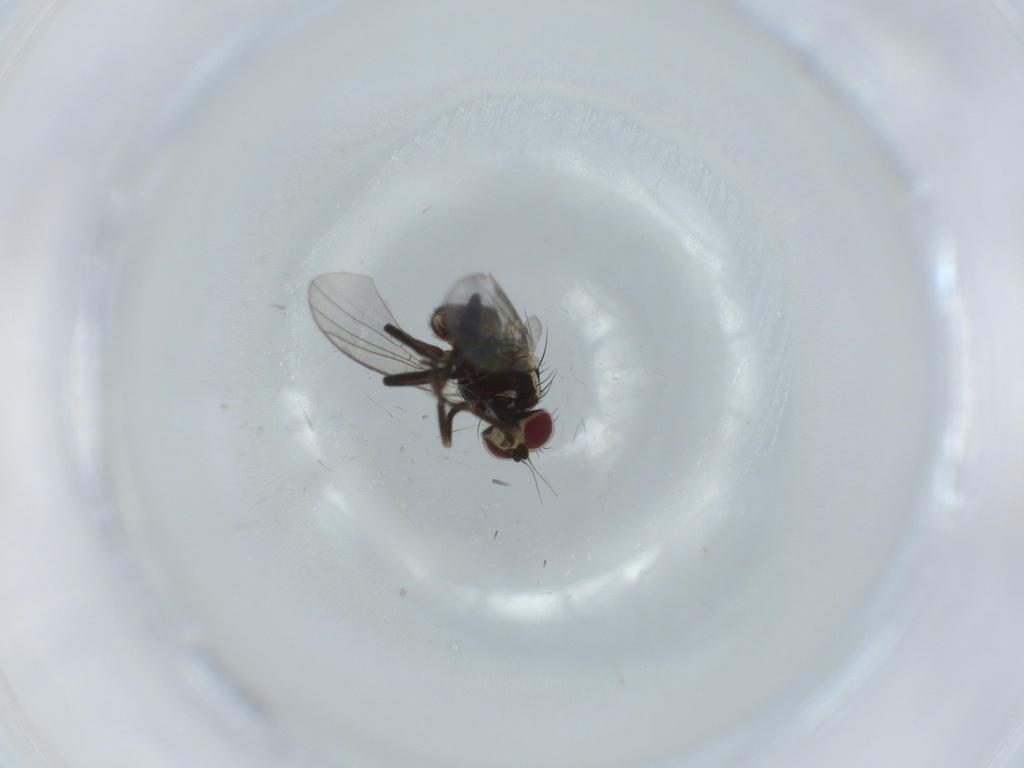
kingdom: Animalia
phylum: Arthropoda
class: Insecta
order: Diptera
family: Agromyzidae
